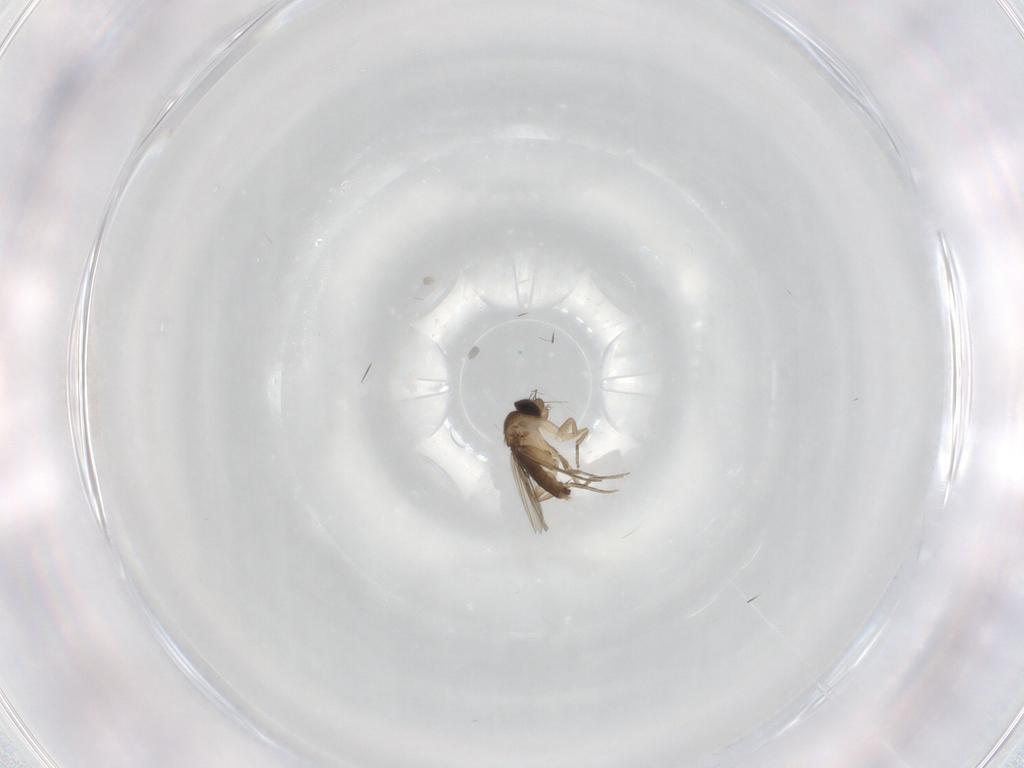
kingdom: Animalia
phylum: Arthropoda
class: Insecta
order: Diptera
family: Phoridae
